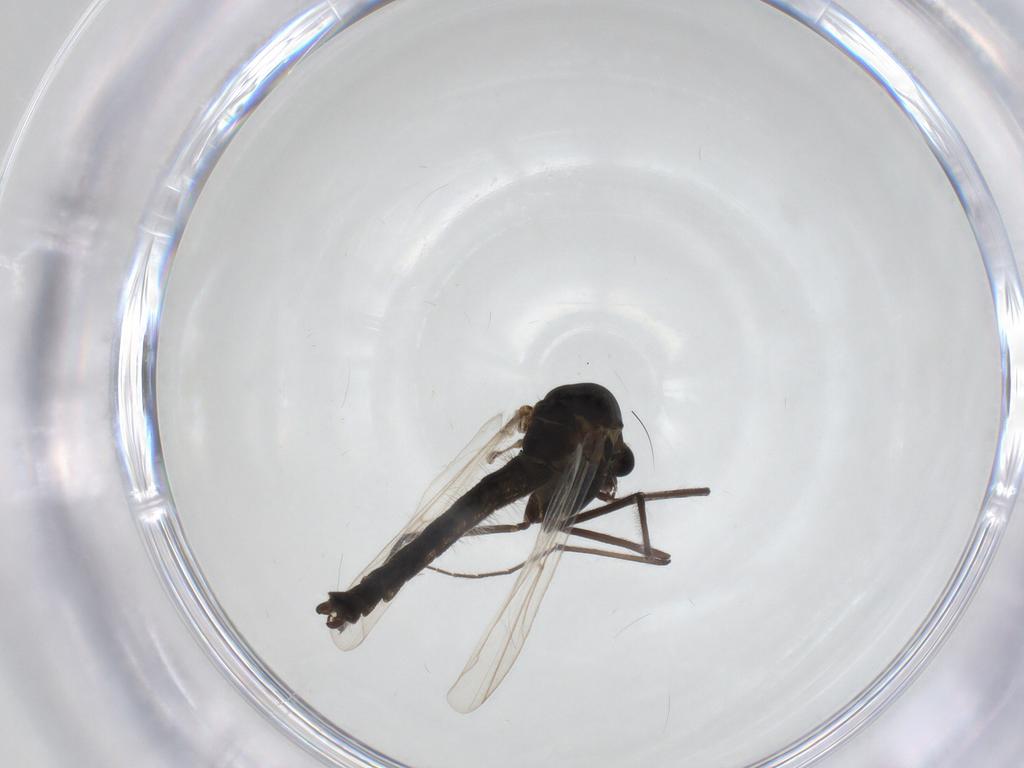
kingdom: Animalia
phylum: Arthropoda
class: Insecta
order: Diptera
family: Chironomidae
